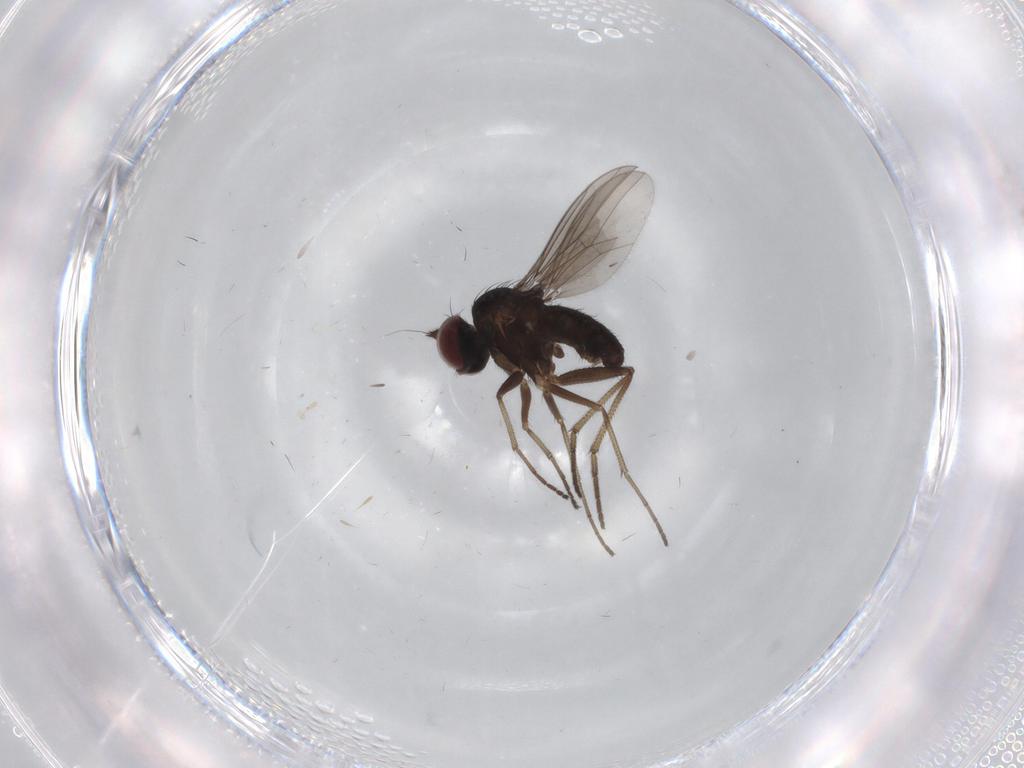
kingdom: Animalia
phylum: Arthropoda
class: Insecta
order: Diptera
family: Dolichopodidae
